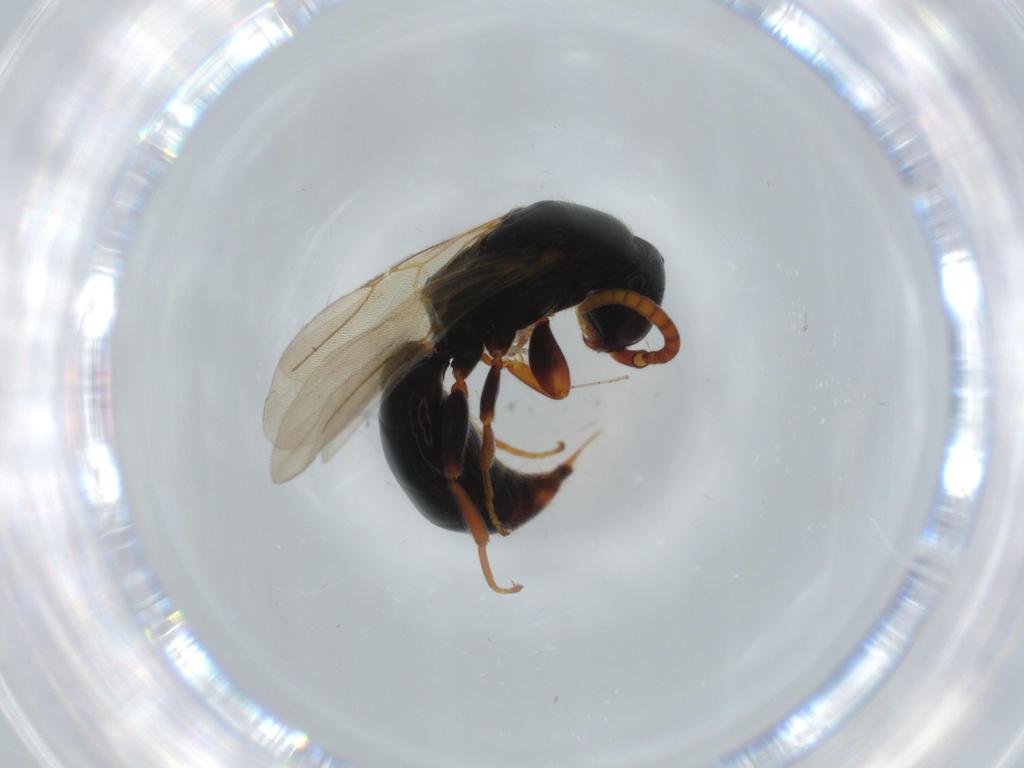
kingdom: Animalia
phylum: Arthropoda
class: Insecta
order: Hymenoptera
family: Bethylidae
